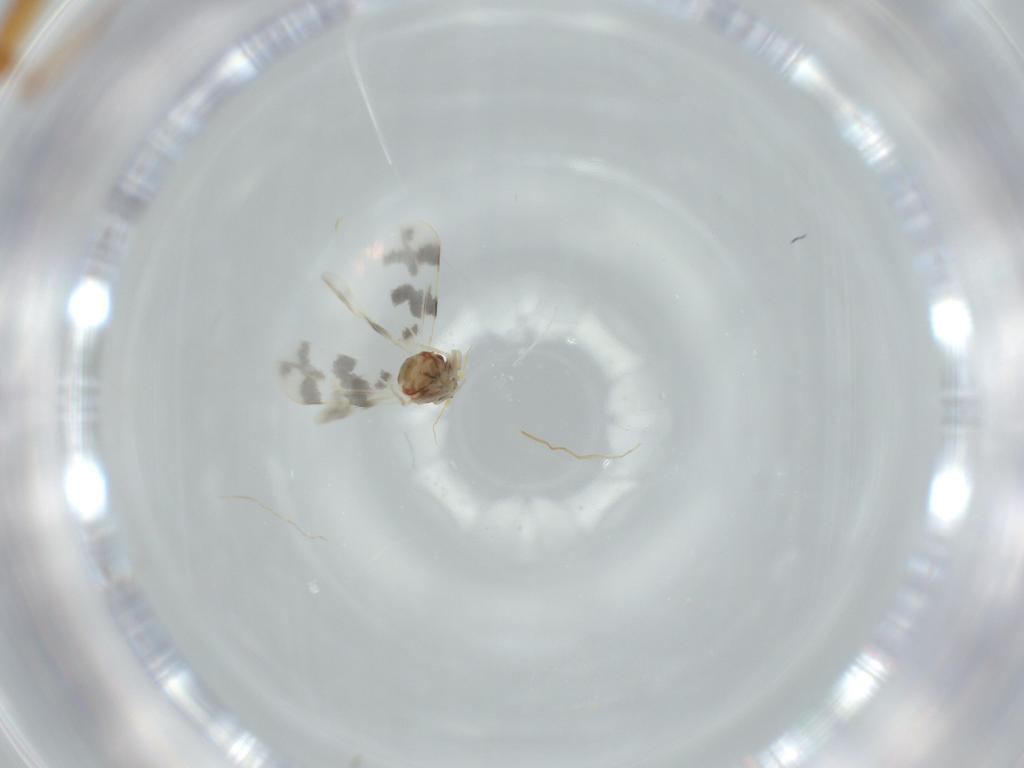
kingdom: Animalia
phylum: Arthropoda
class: Insecta
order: Hemiptera
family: Aleyrodidae
